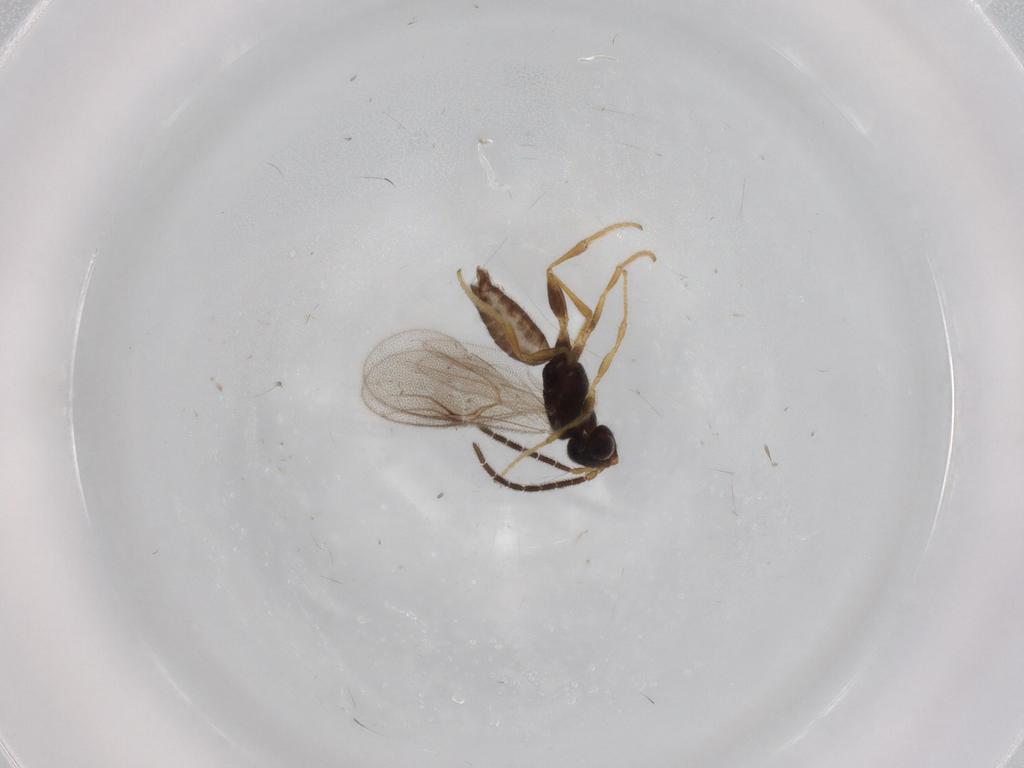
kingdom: Animalia
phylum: Arthropoda
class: Insecta
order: Hymenoptera
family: Dryinidae
